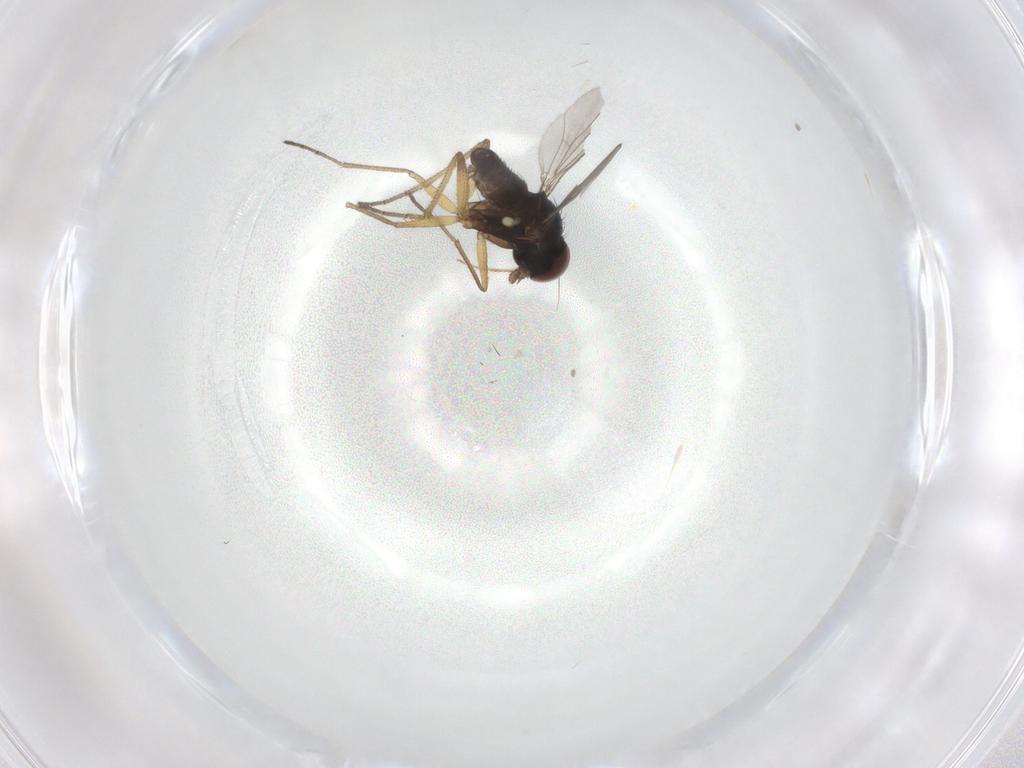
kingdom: Animalia
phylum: Arthropoda
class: Insecta
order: Diptera
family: Dolichopodidae
